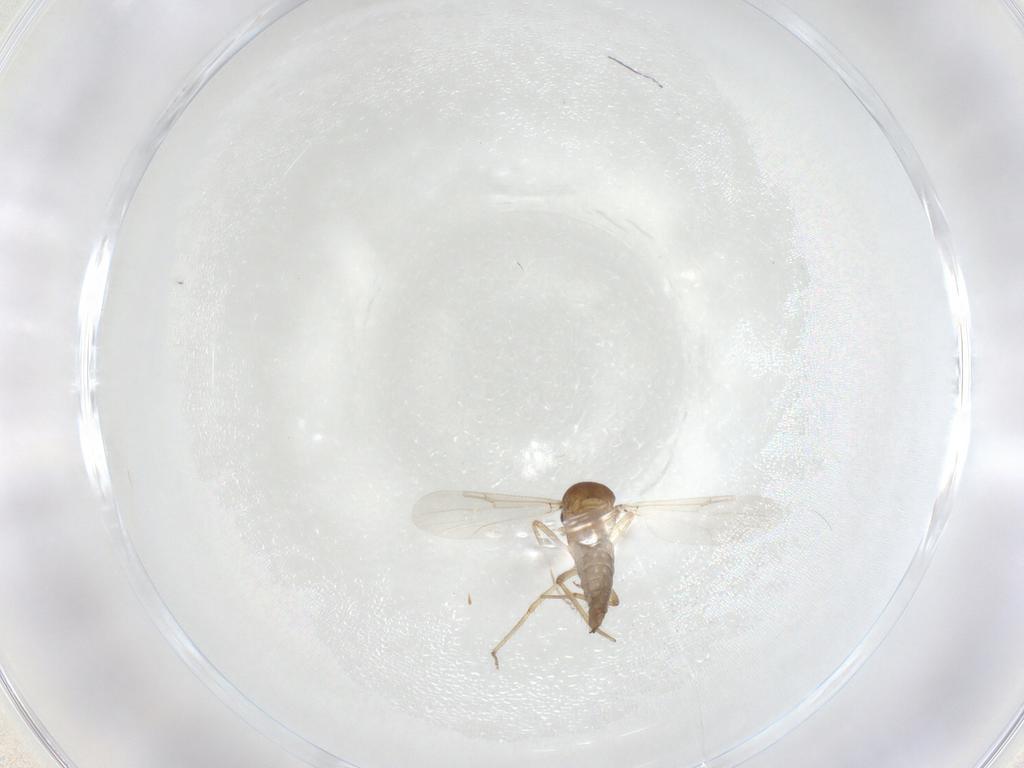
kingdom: Animalia
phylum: Arthropoda
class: Insecta
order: Diptera
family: Ceratopogonidae
